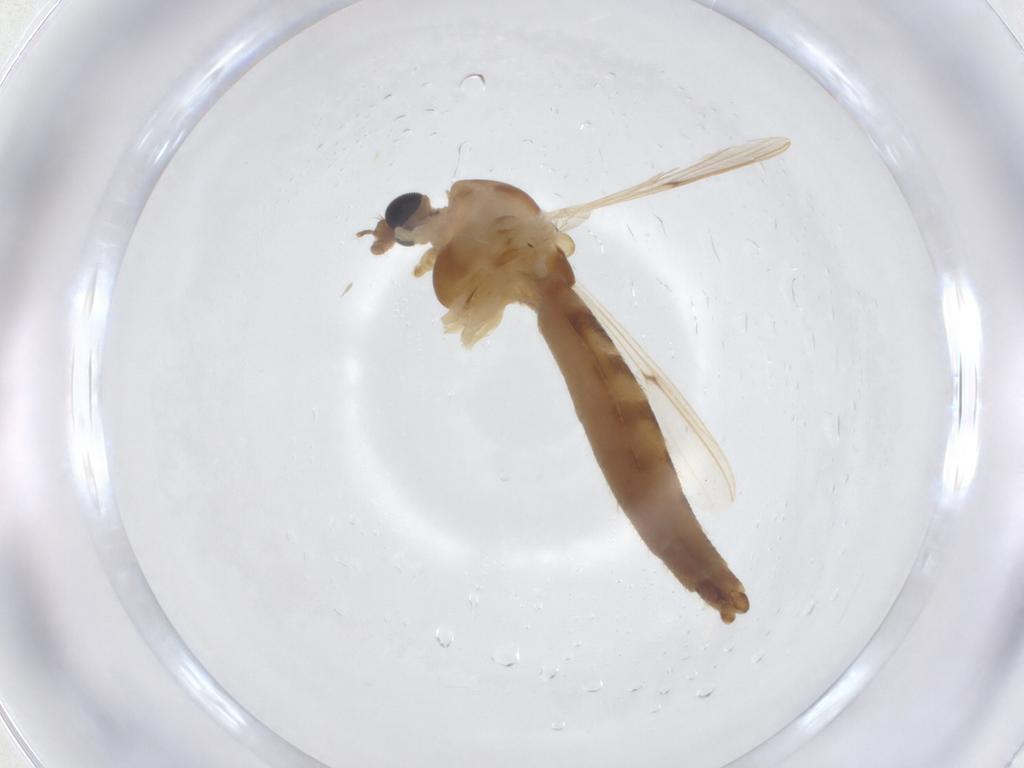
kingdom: Animalia
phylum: Arthropoda
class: Insecta
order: Diptera
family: Chironomidae
